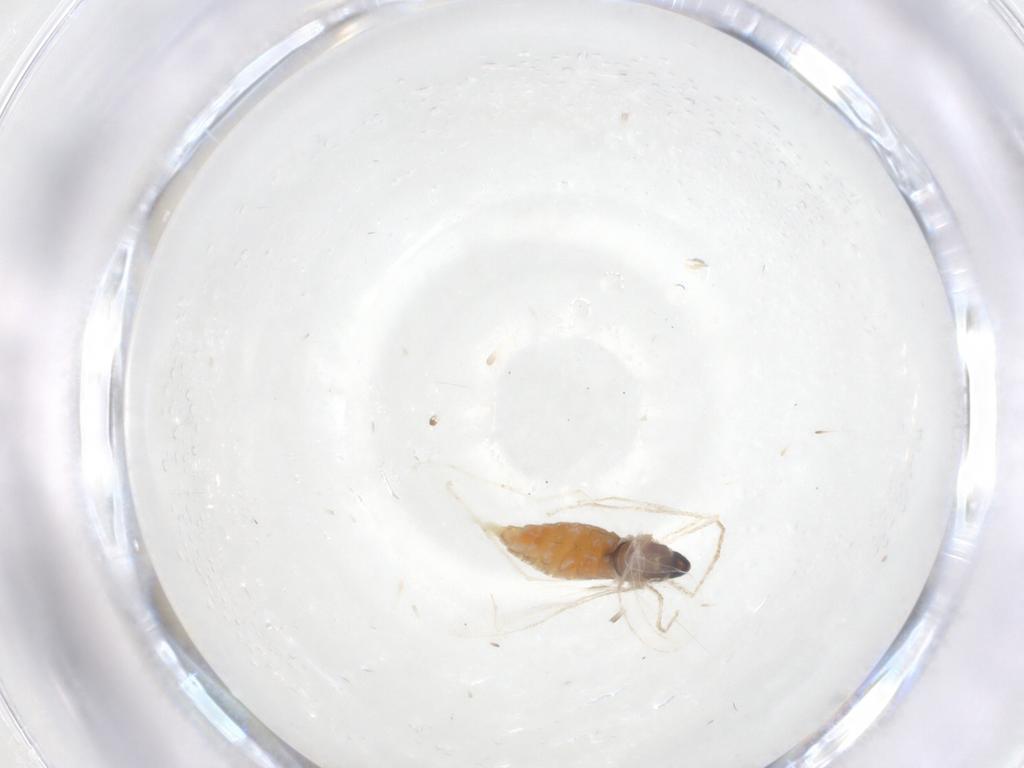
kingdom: Animalia
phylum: Arthropoda
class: Insecta
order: Diptera
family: Cecidomyiidae
